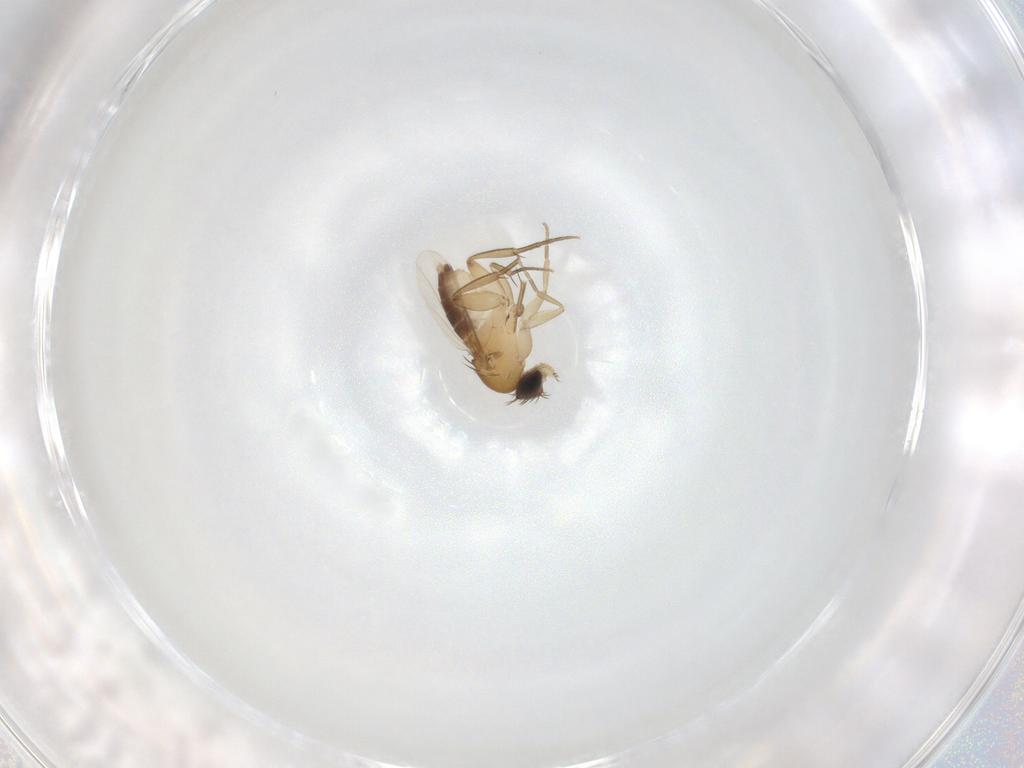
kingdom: Animalia
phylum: Arthropoda
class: Insecta
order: Diptera
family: Phoridae
